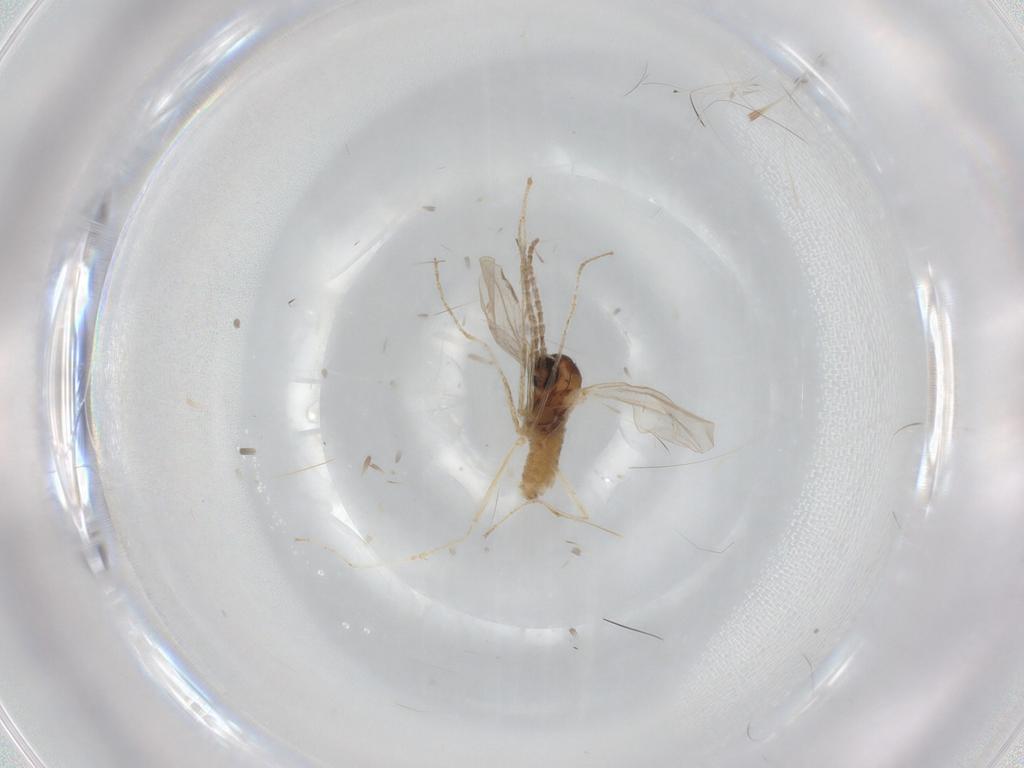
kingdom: Animalia
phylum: Arthropoda
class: Insecta
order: Diptera
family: Cecidomyiidae
